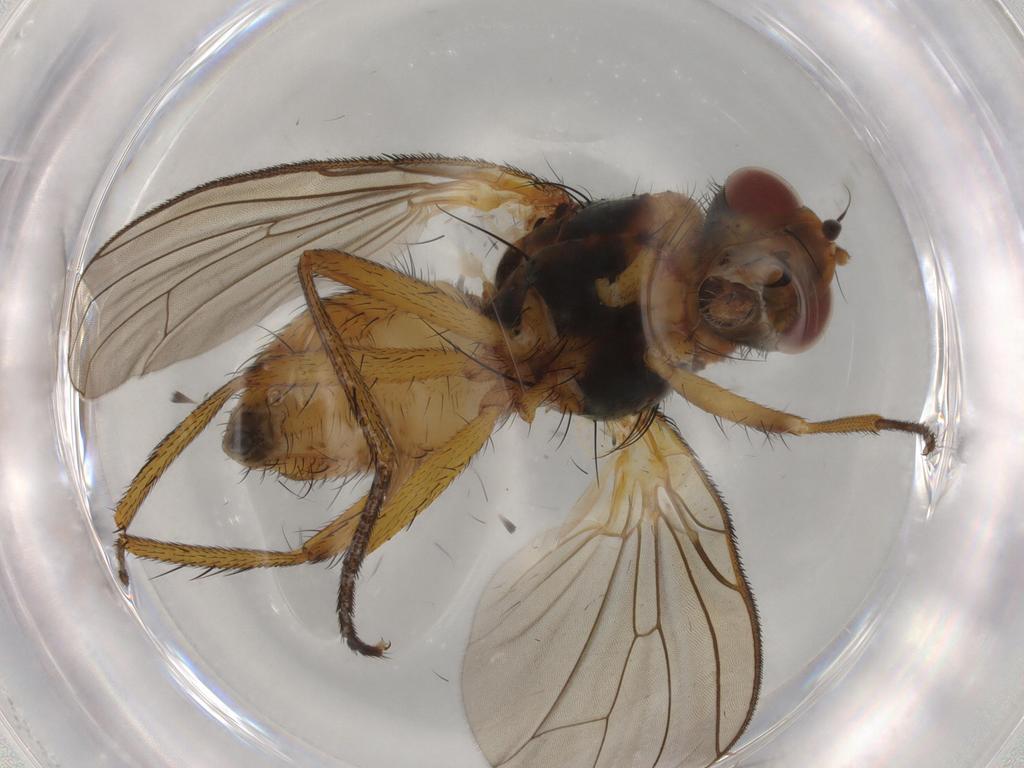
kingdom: Animalia
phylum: Arthropoda
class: Insecta
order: Diptera
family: Anthomyiidae
